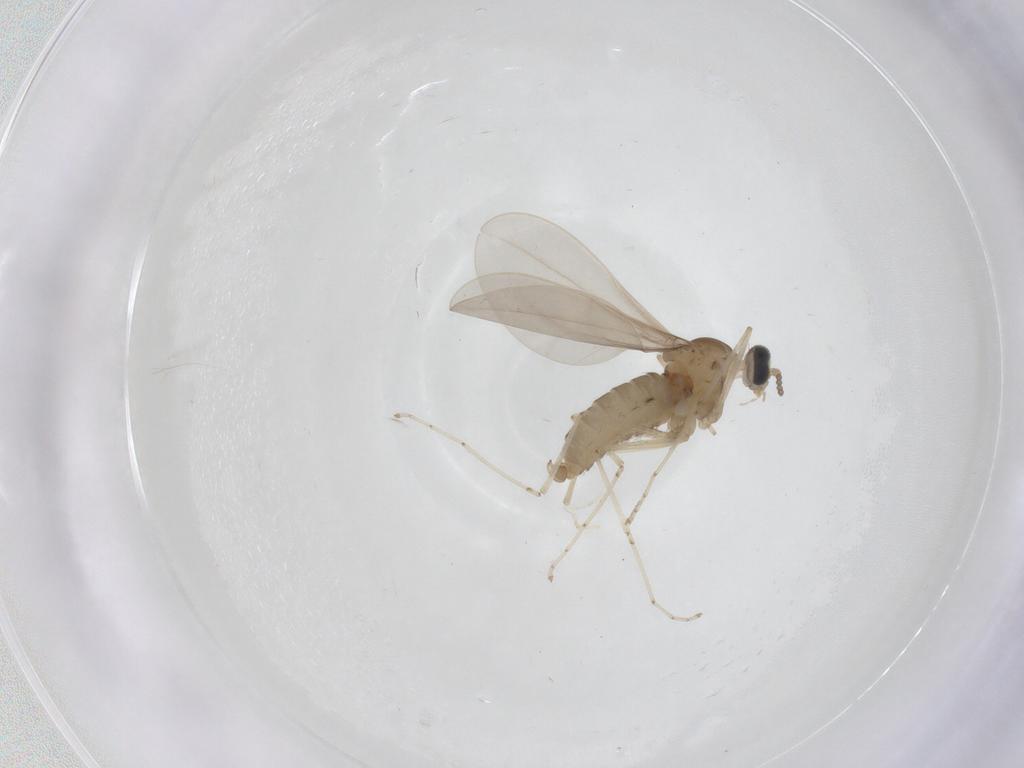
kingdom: Animalia
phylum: Arthropoda
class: Insecta
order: Diptera
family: Cecidomyiidae
